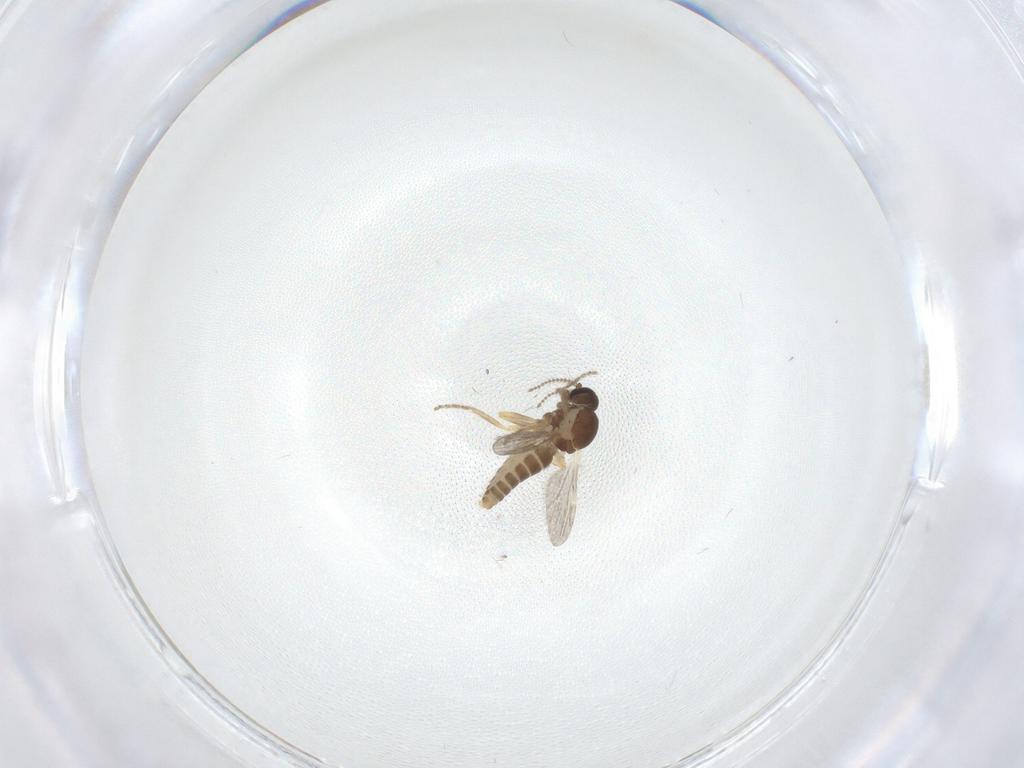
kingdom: Animalia
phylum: Arthropoda
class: Insecta
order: Diptera
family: Ceratopogonidae
